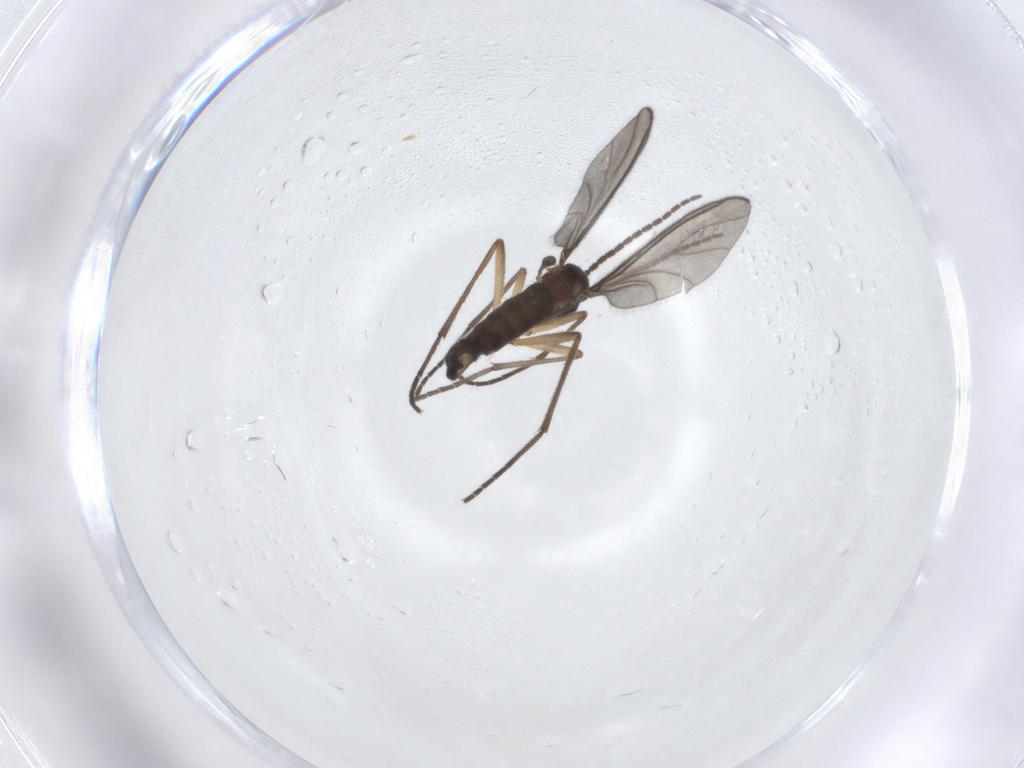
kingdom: Animalia
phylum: Arthropoda
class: Insecta
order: Diptera
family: Sciaridae
